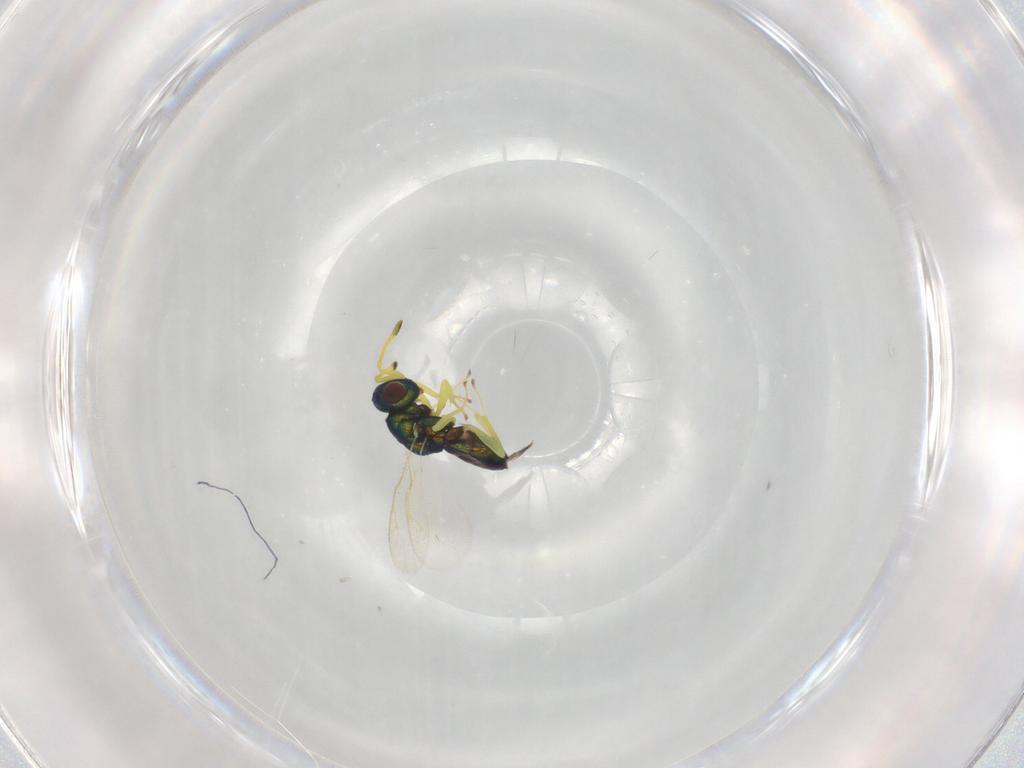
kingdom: Animalia
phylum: Arthropoda
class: Insecta
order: Hymenoptera
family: Pteromalidae
